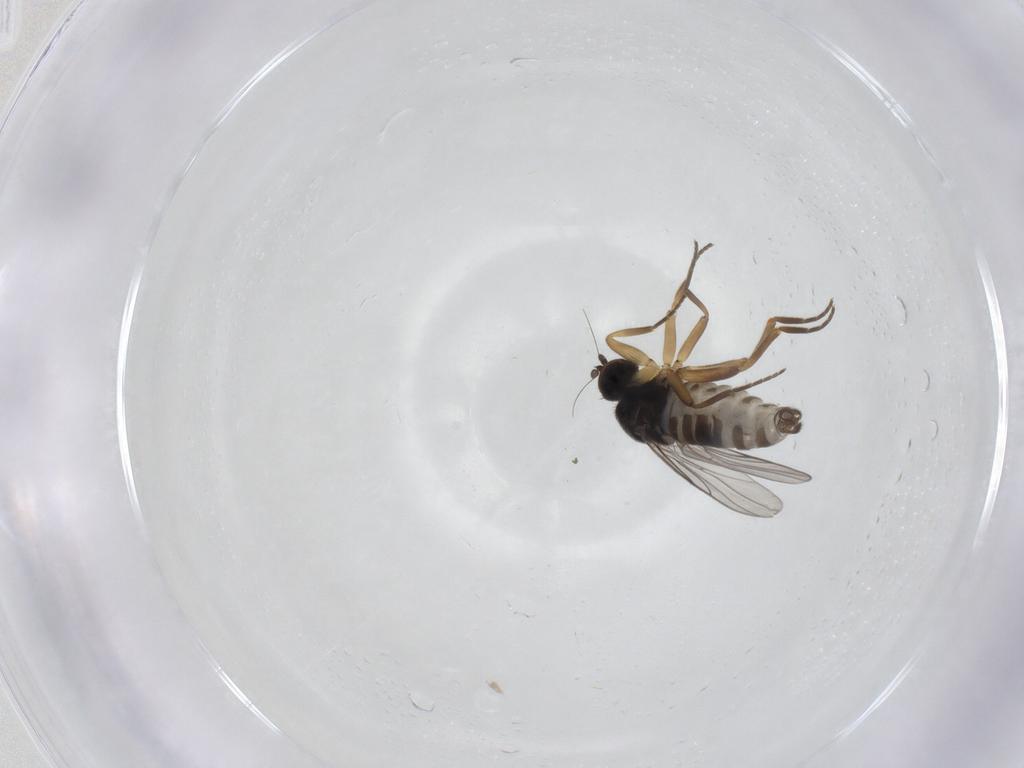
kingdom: Animalia
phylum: Arthropoda
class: Insecta
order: Diptera
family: Hybotidae
